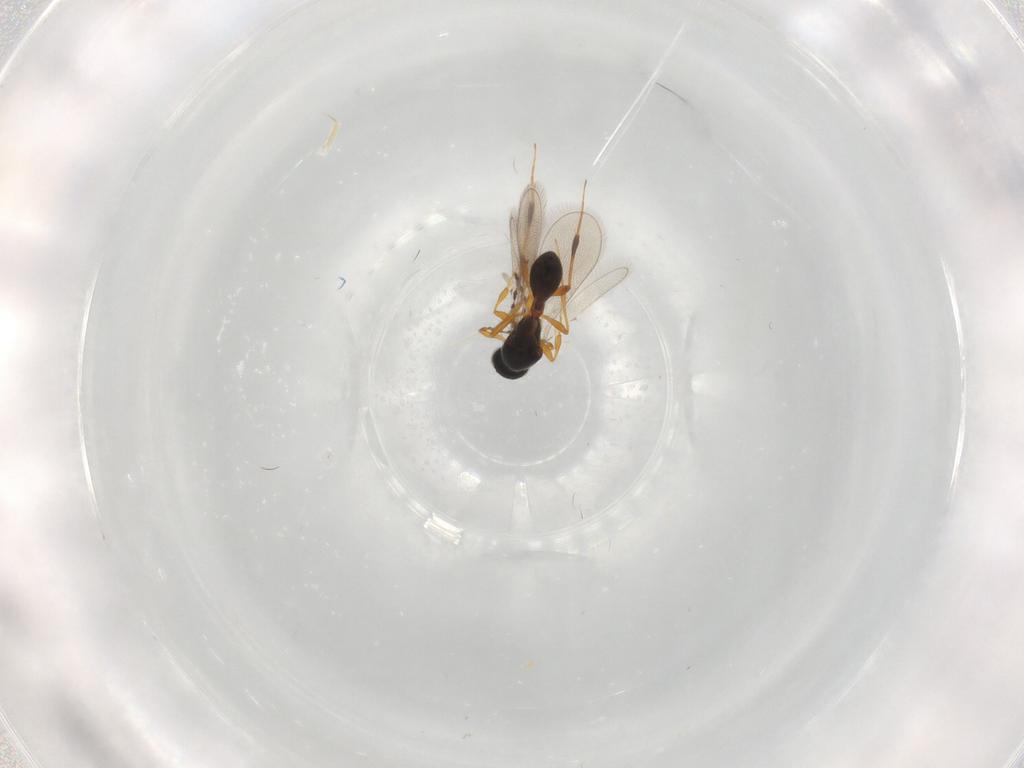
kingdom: Animalia
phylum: Arthropoda
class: Insecta
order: Hymenoptera
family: Platygastridae
